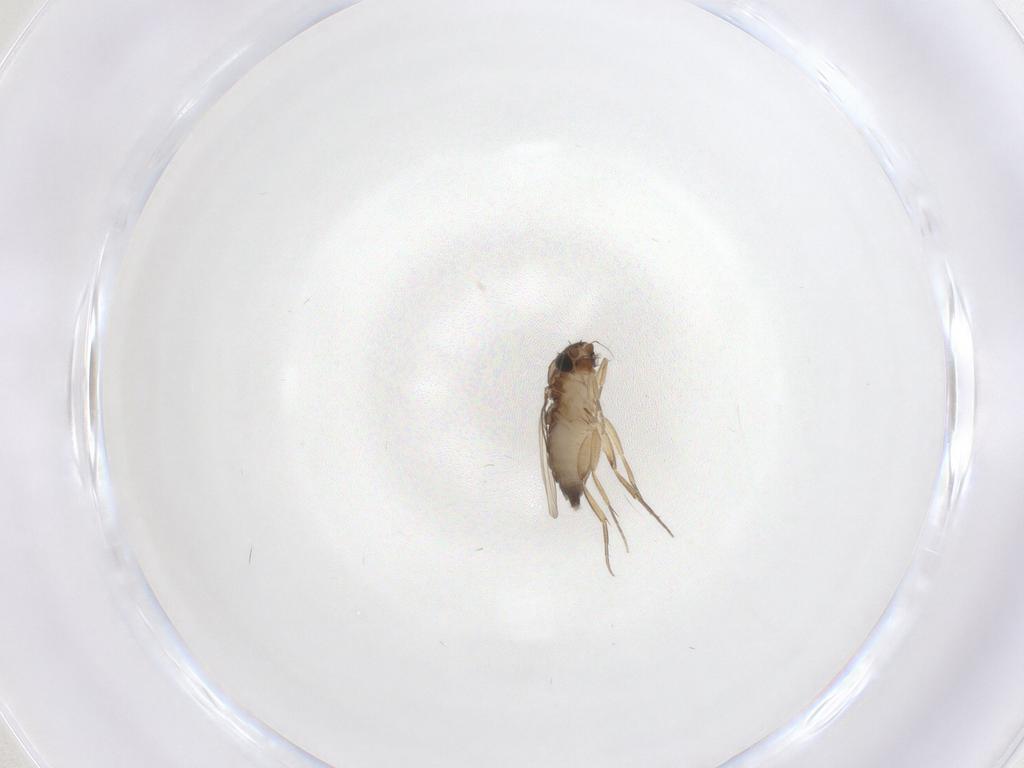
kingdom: Animalia
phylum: Arthropoda
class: Insecta
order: Diptera
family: Phoridae
